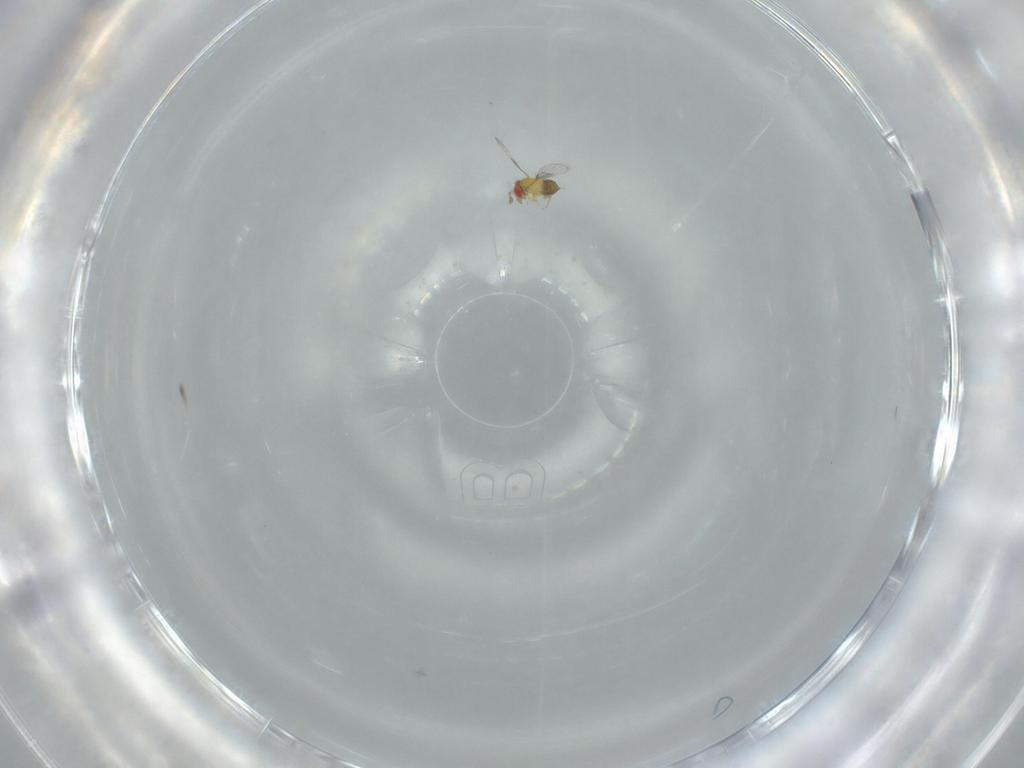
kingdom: Animalia
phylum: Arthropoda
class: Insecta
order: Hymenoptera
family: Trichogrammatidae
